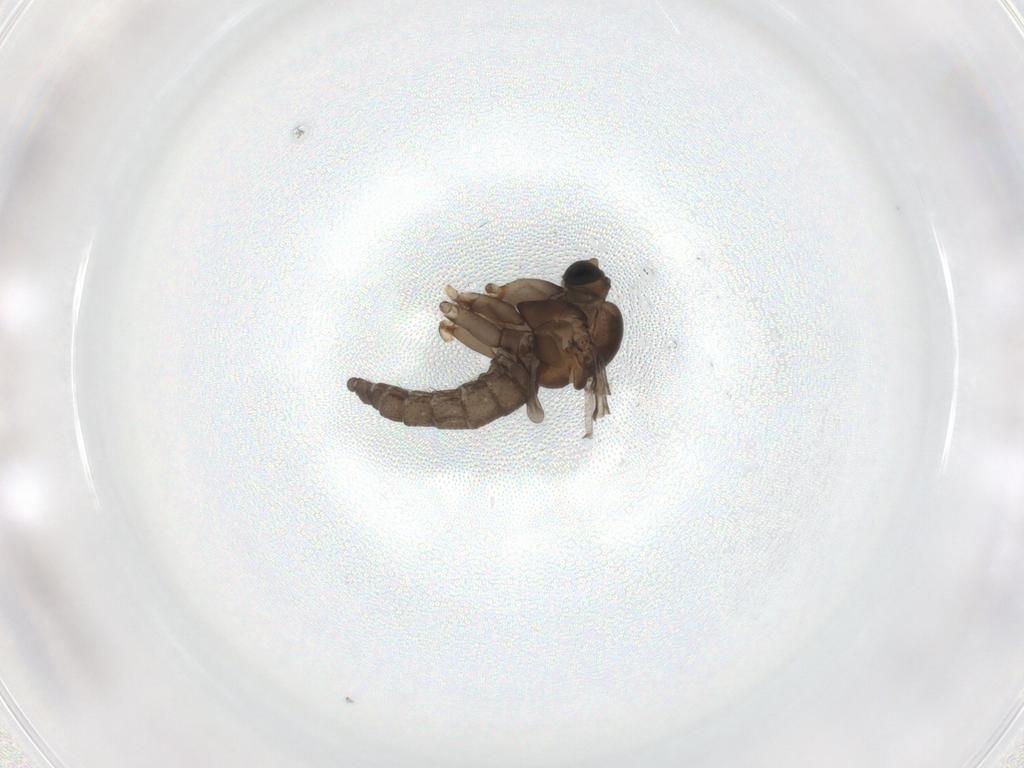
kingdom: Animalia
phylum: Arthropoda
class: Insecta
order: Diptera
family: Sciaridae
